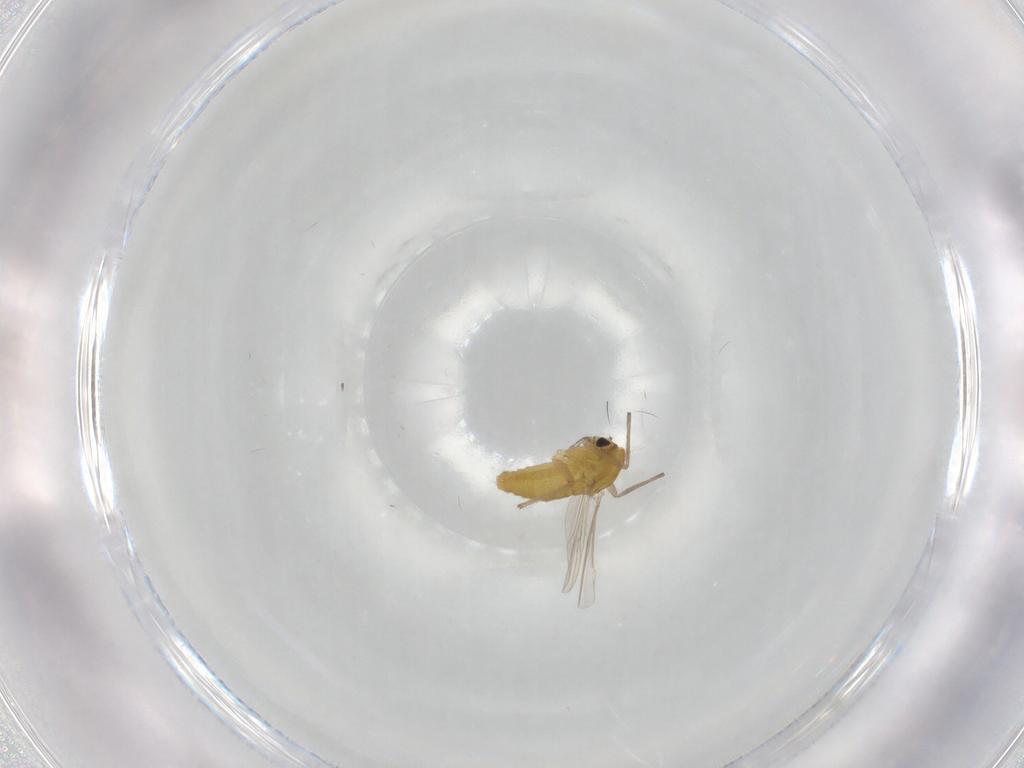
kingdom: Animalia
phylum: Arthropoda
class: Insecta
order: Diptera
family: Chironomidae
